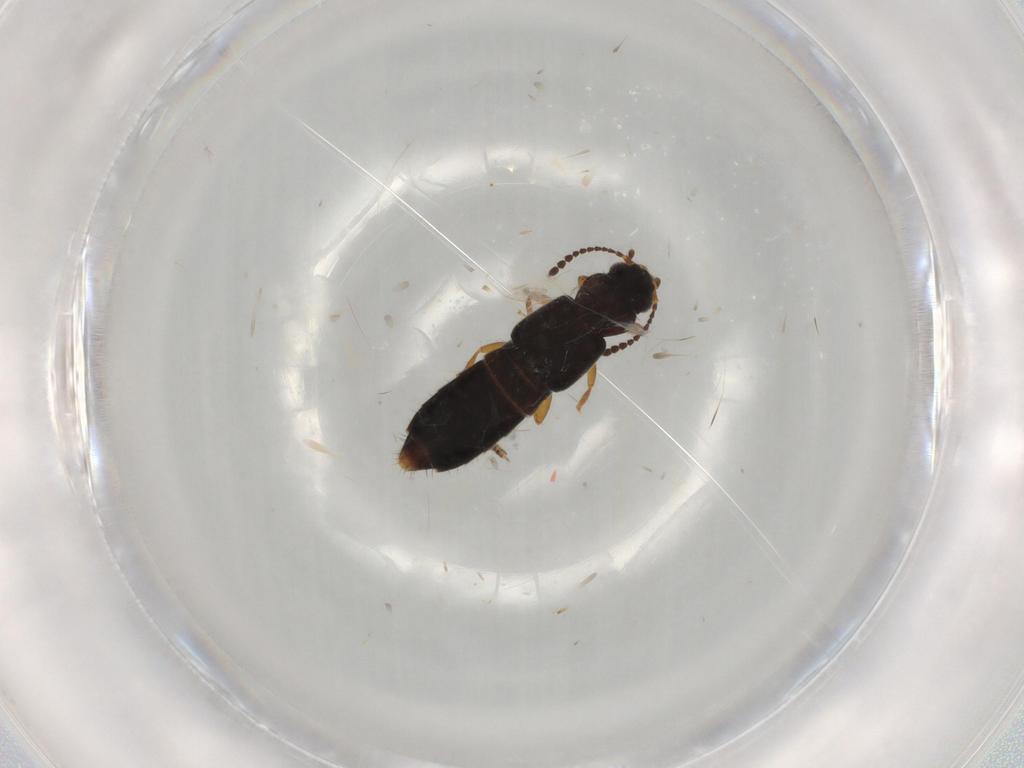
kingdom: Animalia
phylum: Arthropoda
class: Insecta
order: Coleoptera
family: Staphylinidae
